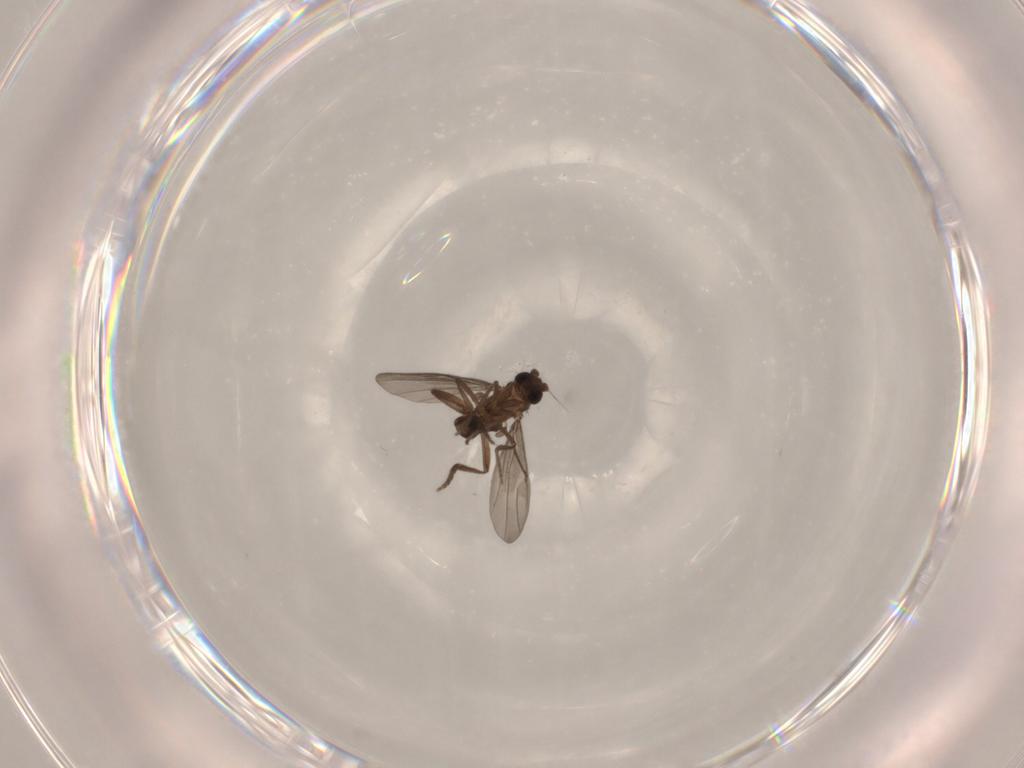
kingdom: Animalia
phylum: Arthropoda
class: Insecta
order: Diptera
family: Phoridae
